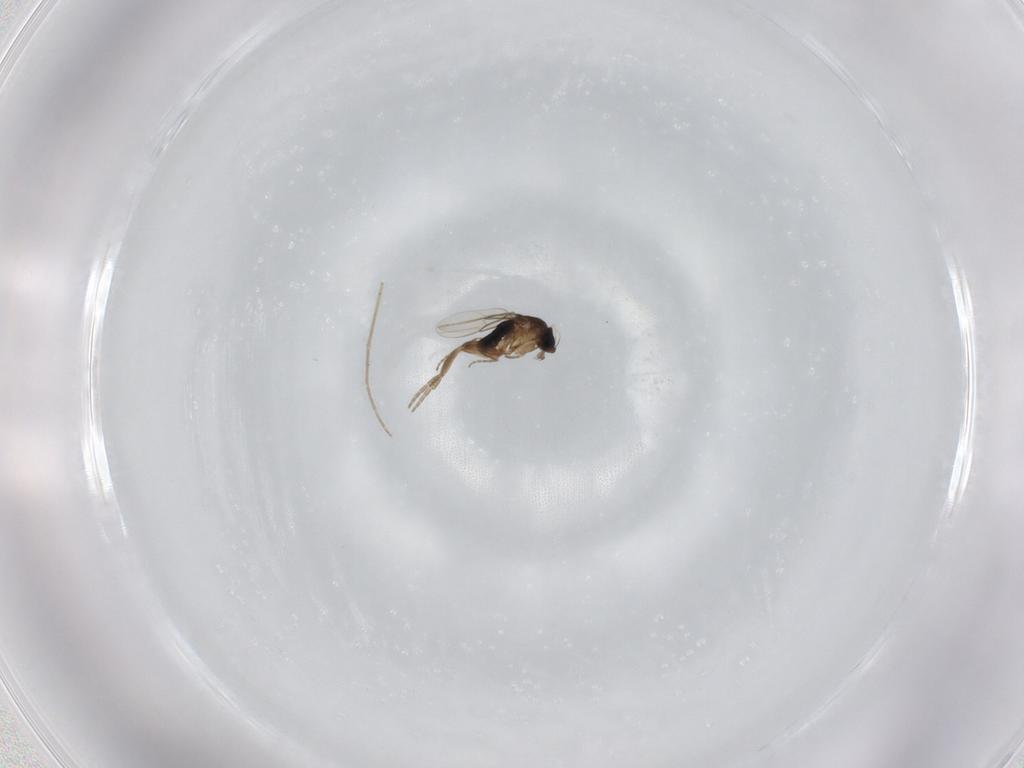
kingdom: Animalia
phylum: Arthropoda
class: Insecta
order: Diptera
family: Chironomidae
